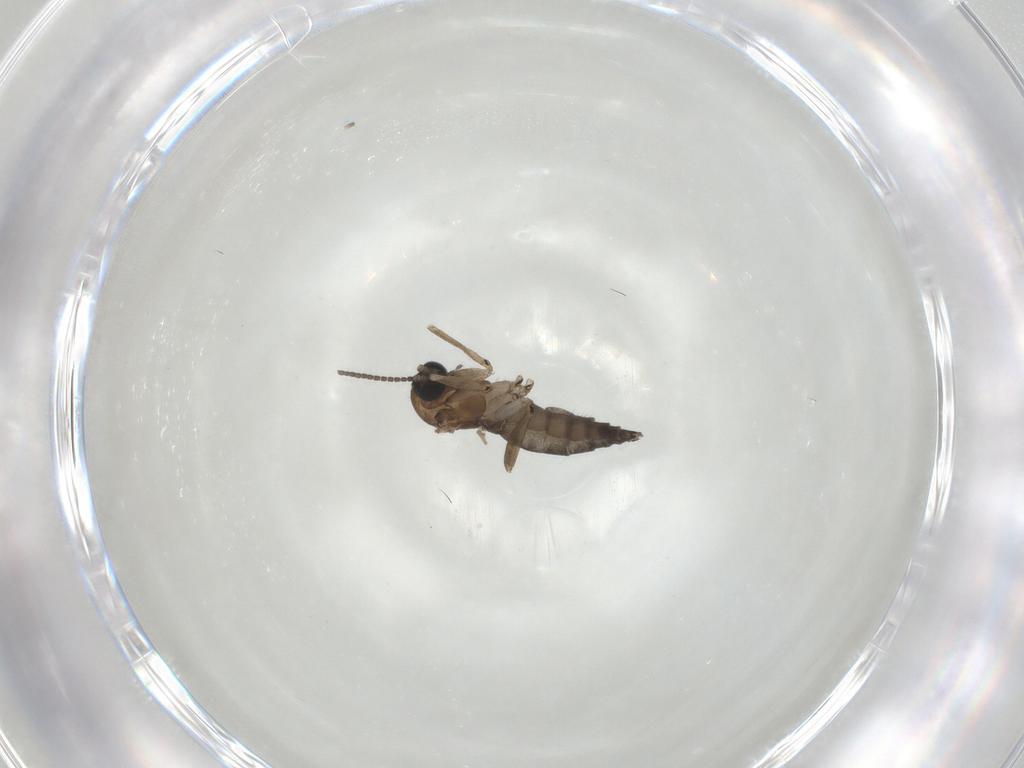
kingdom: Animalia
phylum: Arthropoda
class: Insecta
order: Diptera
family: Sciaridae
